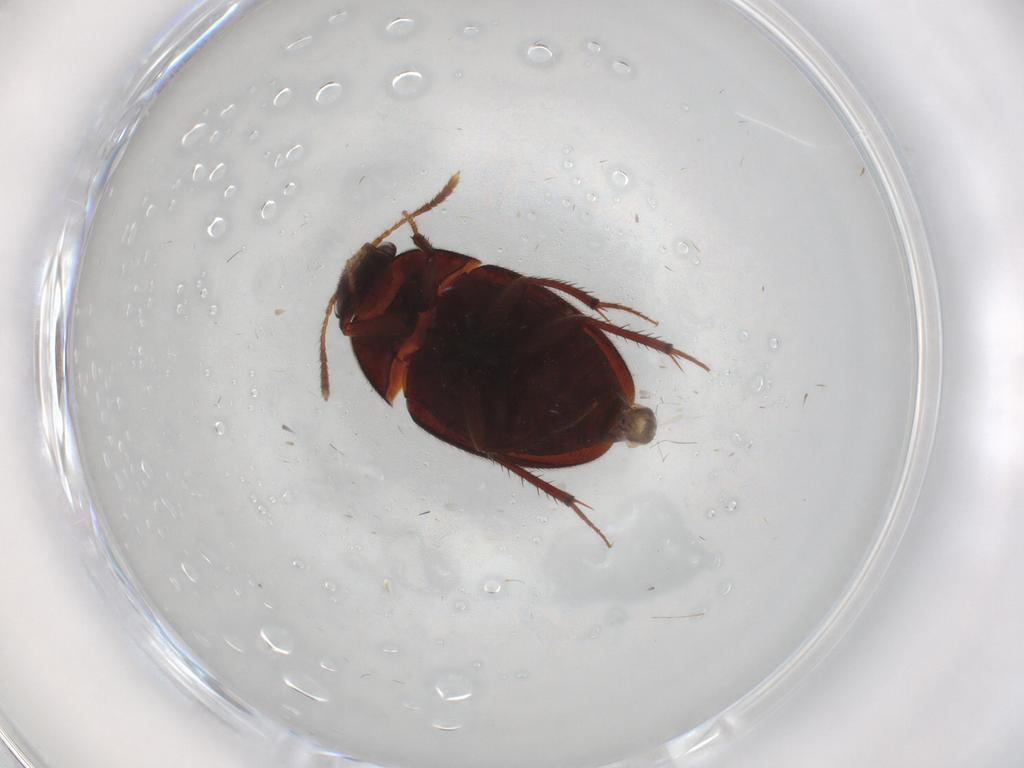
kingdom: Animalia
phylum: Arthropoda
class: Insecta
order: Coleoptera
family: Leiodidae
